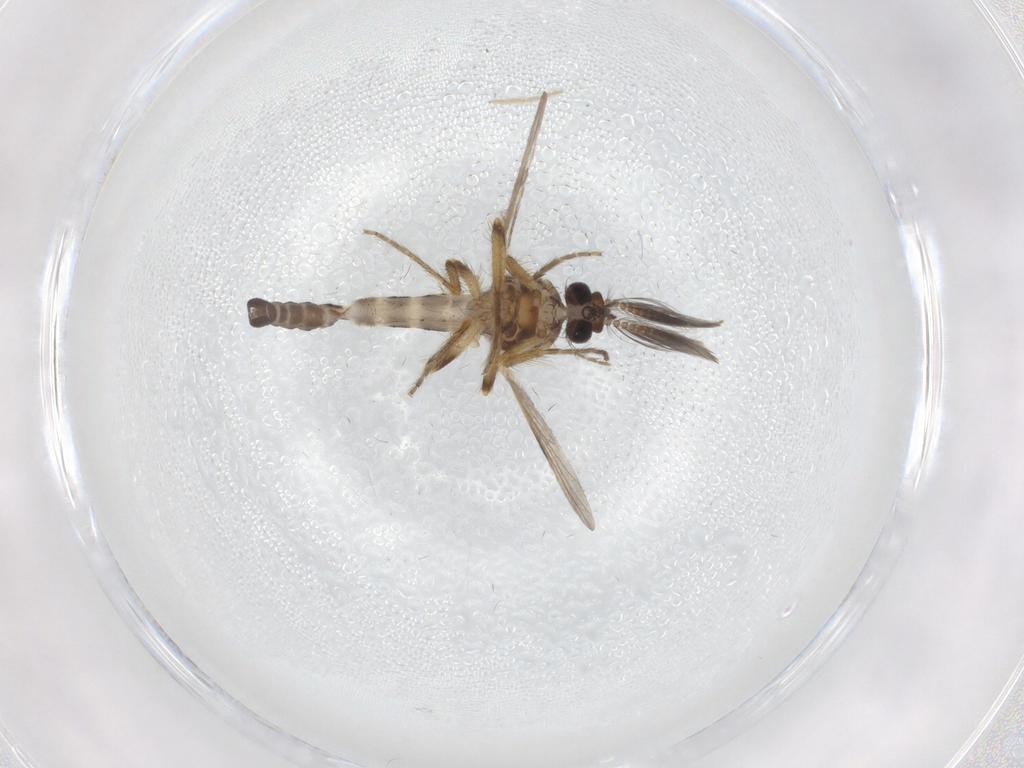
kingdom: Animalia
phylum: Arthropoda
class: Insecta
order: Diptera
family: Ceratopogonidae
